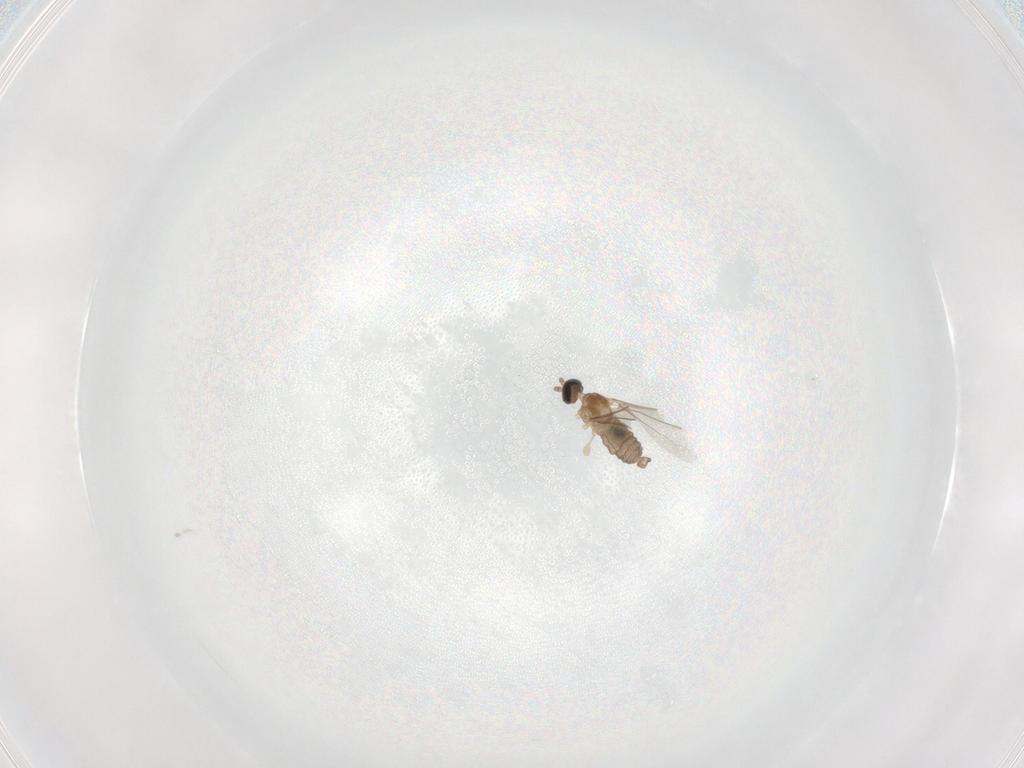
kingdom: Animalia
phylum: Arthropoda
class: Insecta
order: Diptera
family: Cecidomyiidae
